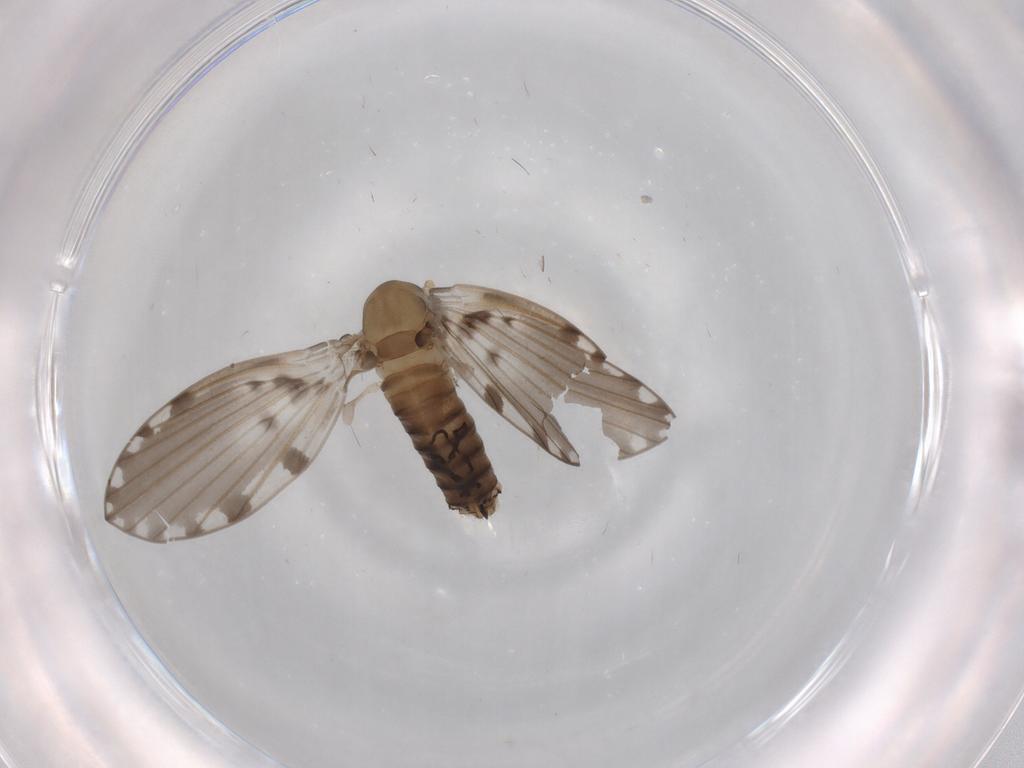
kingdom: Animalia
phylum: Arthropoda
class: Insecta
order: Diptera
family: Psychodidae
